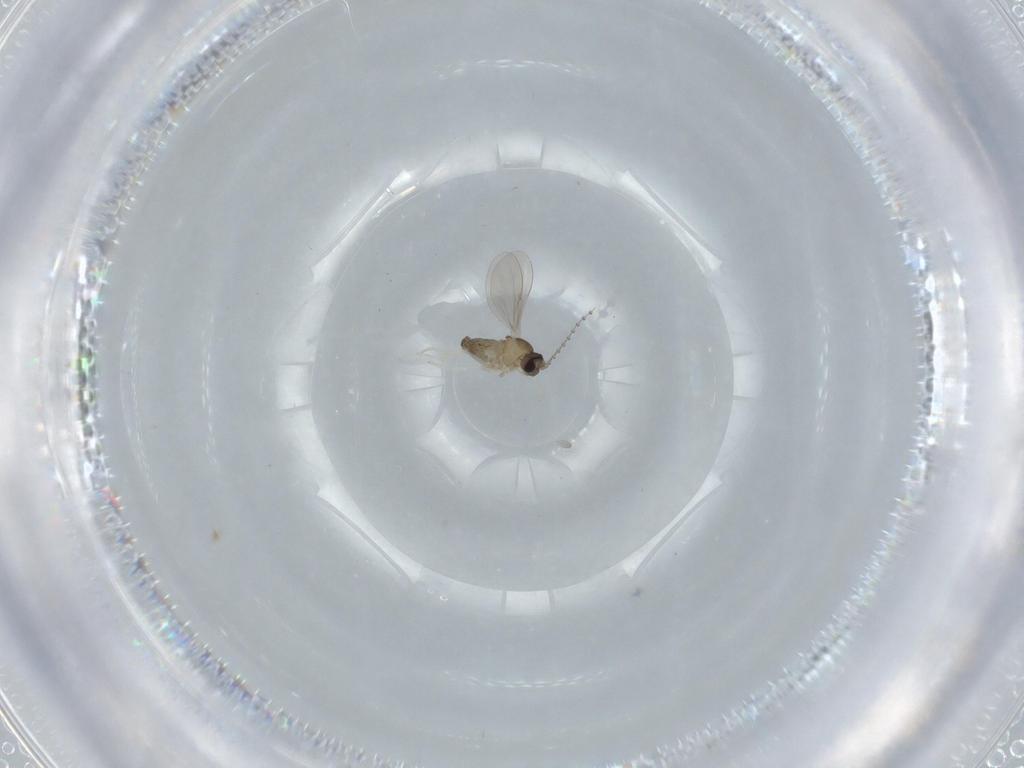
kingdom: Animalia
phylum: Arthropoda
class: Insecta
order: Diptera
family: Cecidomyiidae
